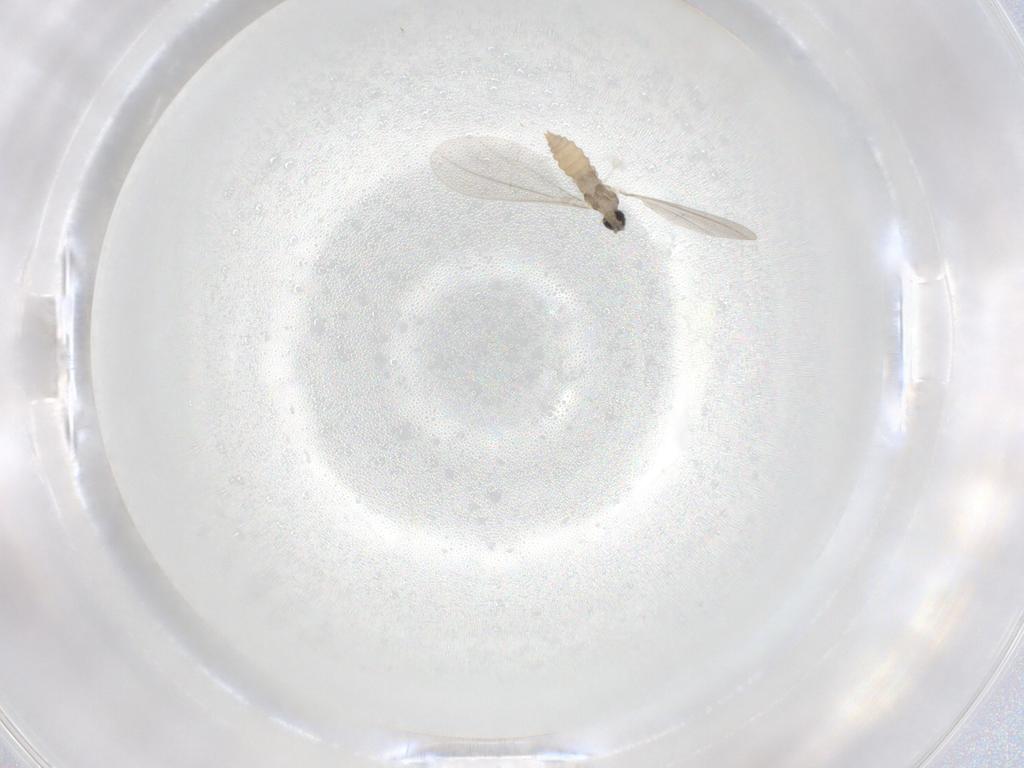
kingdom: Animalia
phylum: Arthropoda
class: Insecta
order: Diptera
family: Cecidomyiidae
